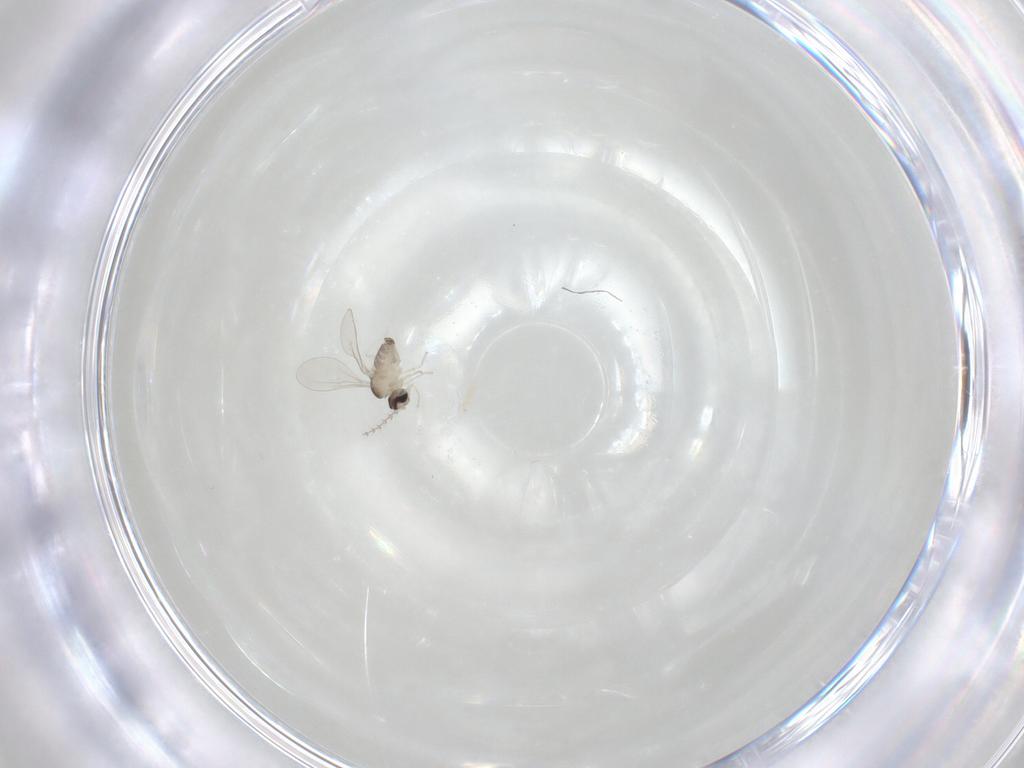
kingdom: Animalia
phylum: Arthropoda
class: Insecta
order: Diptera
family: Cecidomyiidae
